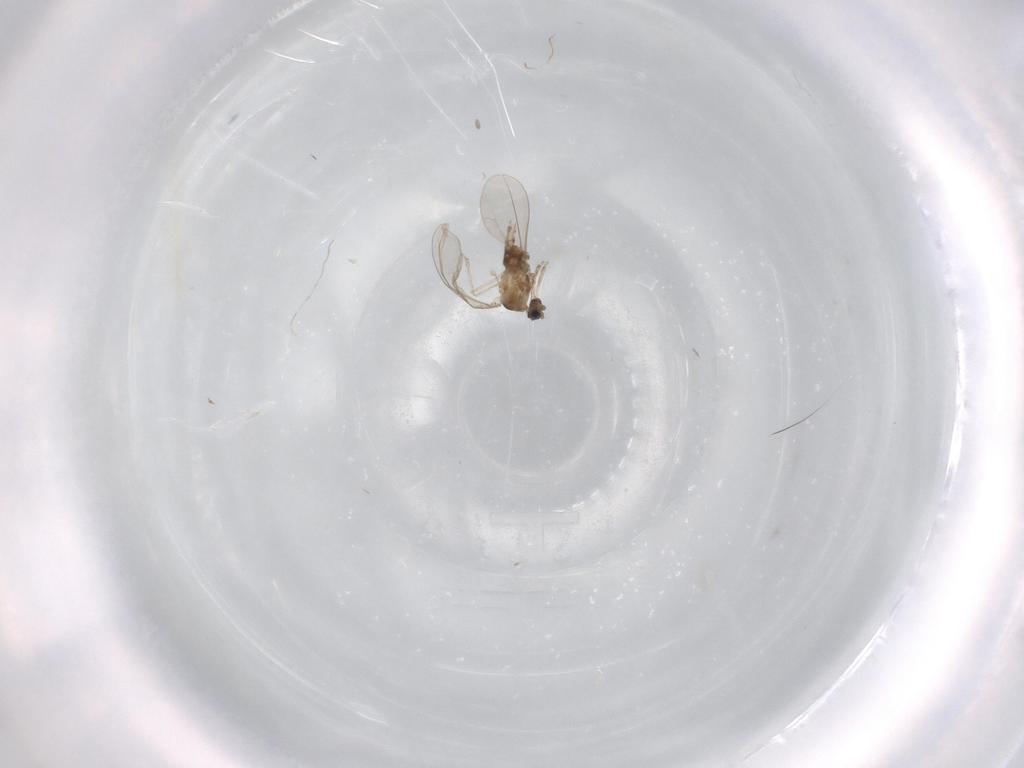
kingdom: Animalia
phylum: Arthropoda
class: Insecta
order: Diptera
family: Cecidomyiidae
